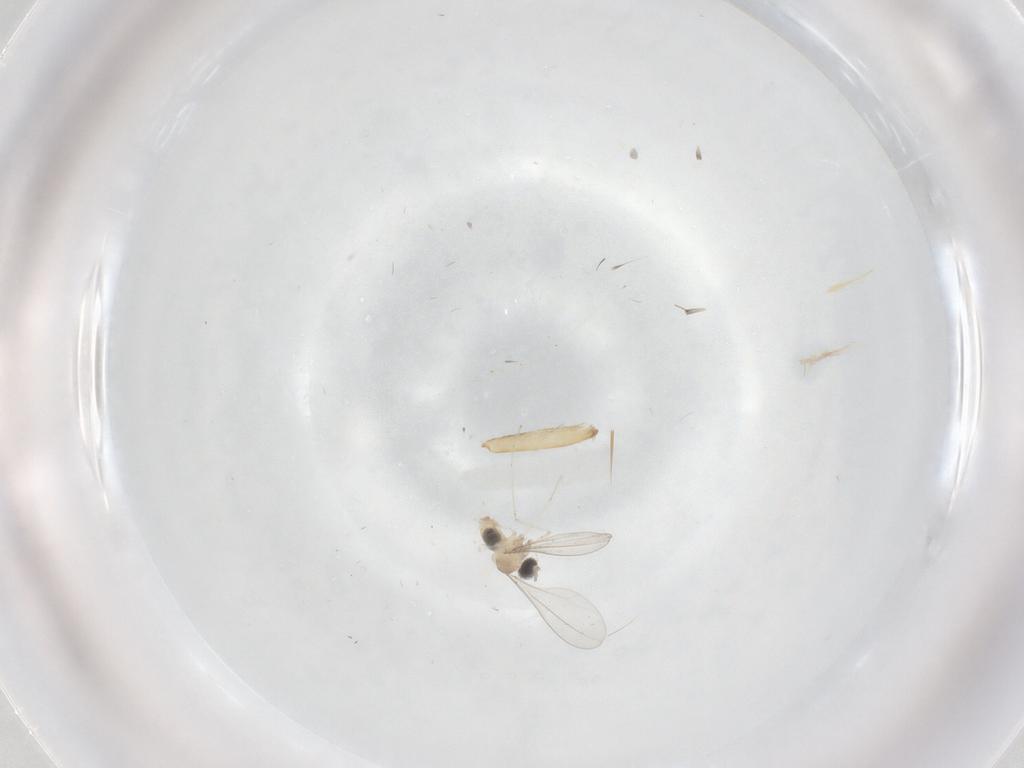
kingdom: Animalia
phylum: Arthropoda
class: Insecta
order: Diptera
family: Cecidomyiidae
